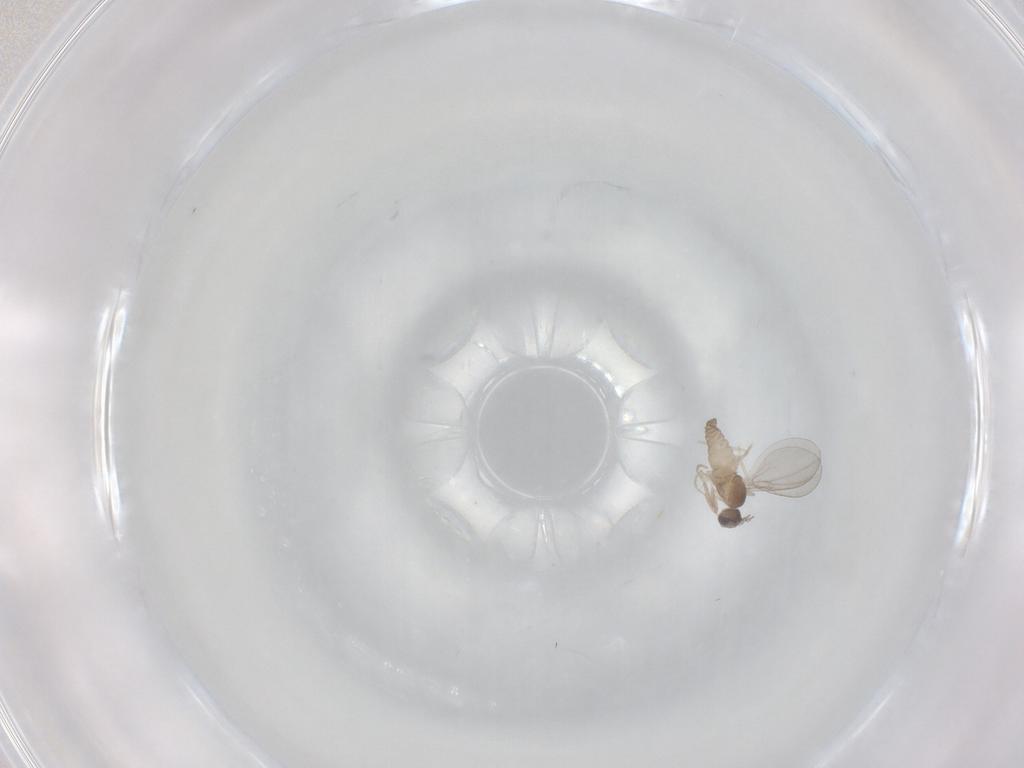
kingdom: Animalia
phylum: Arthropoda
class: Insecta
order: Diptera
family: Cecidomyiidae
